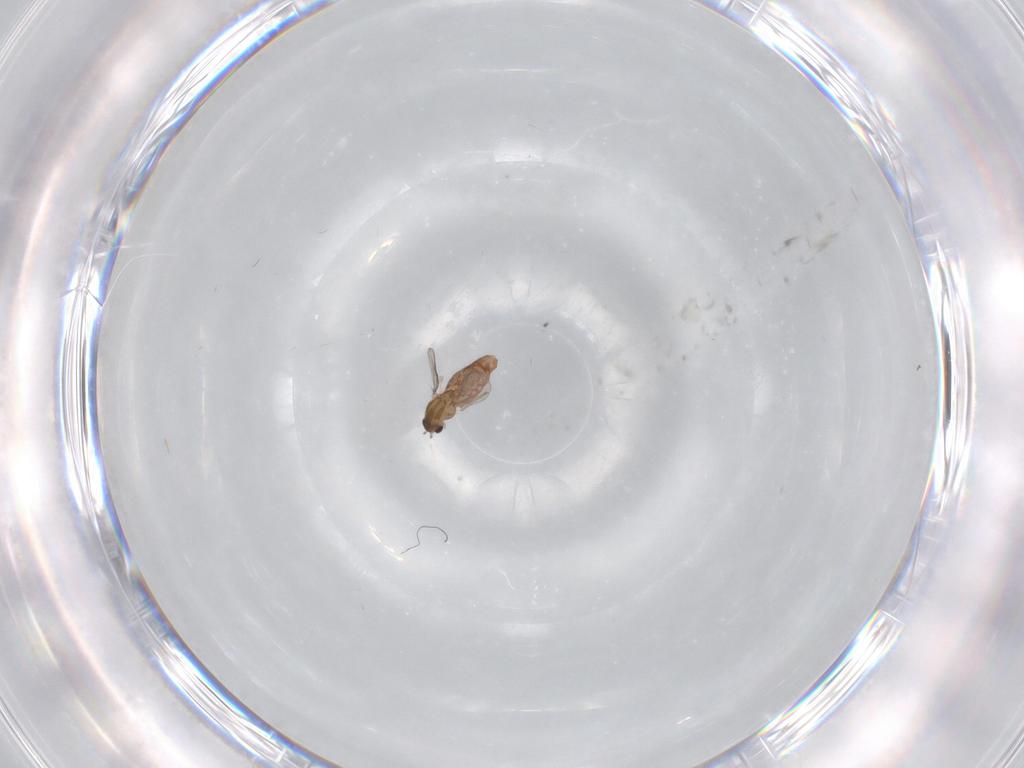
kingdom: Animalia
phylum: Arthropoda
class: Insecta
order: Diptera
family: Chironomidae
